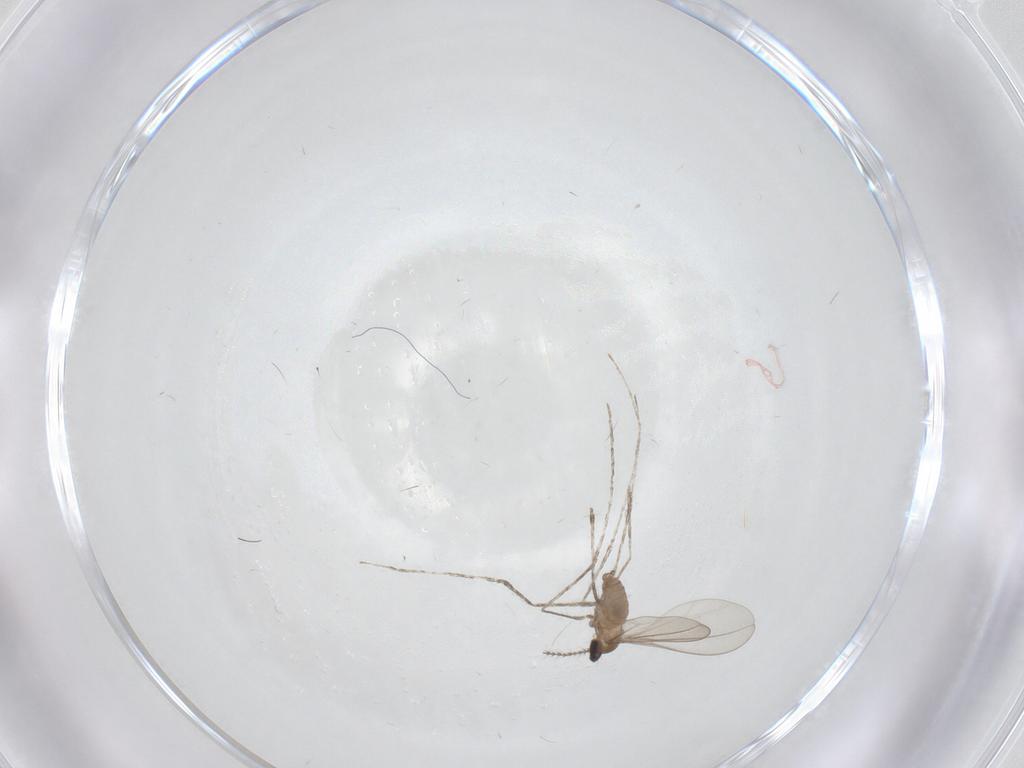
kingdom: Animalia
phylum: Arthropoda
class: Insecta
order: Diptera
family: Cecidomyiidae
